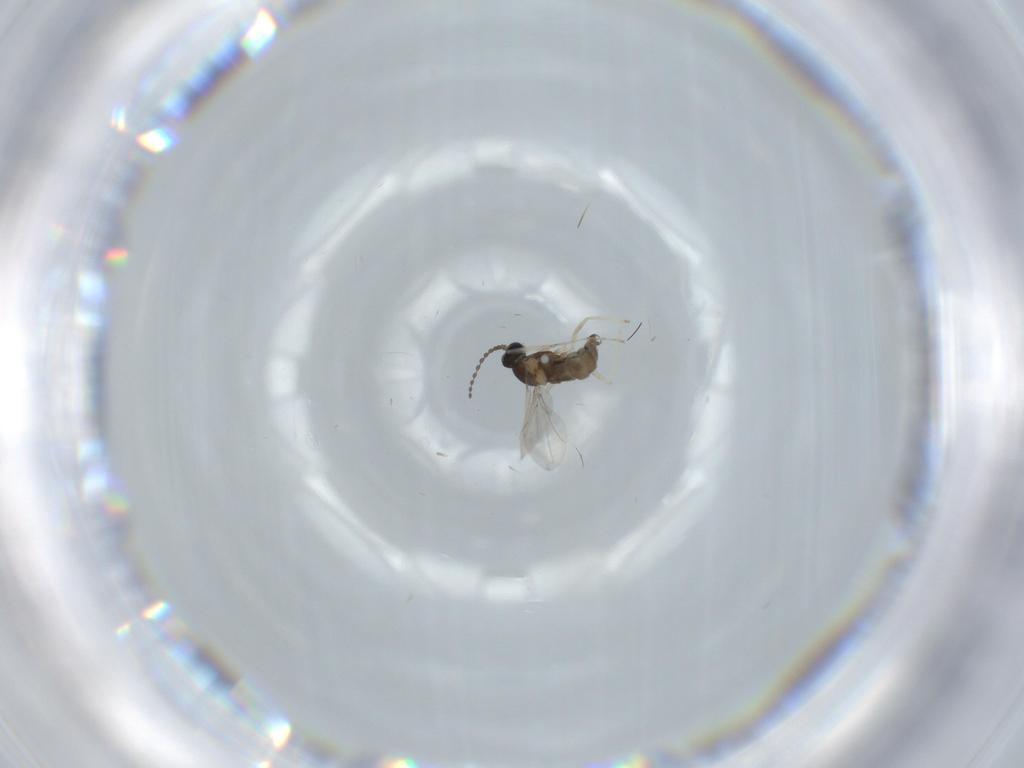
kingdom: Animalia
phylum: Arthropoda
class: Insecta
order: Diptera
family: Cecidomyiidae
